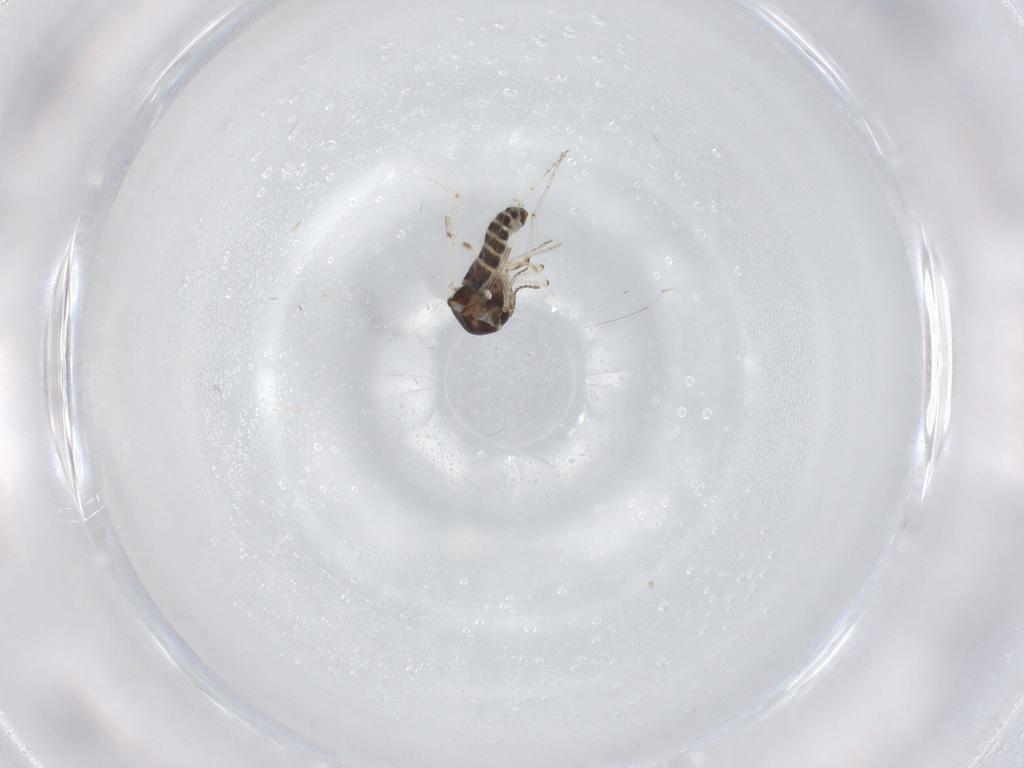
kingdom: Animalia
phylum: Arthropoda
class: Insecta
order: Diptera
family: Ceratopogonidae
